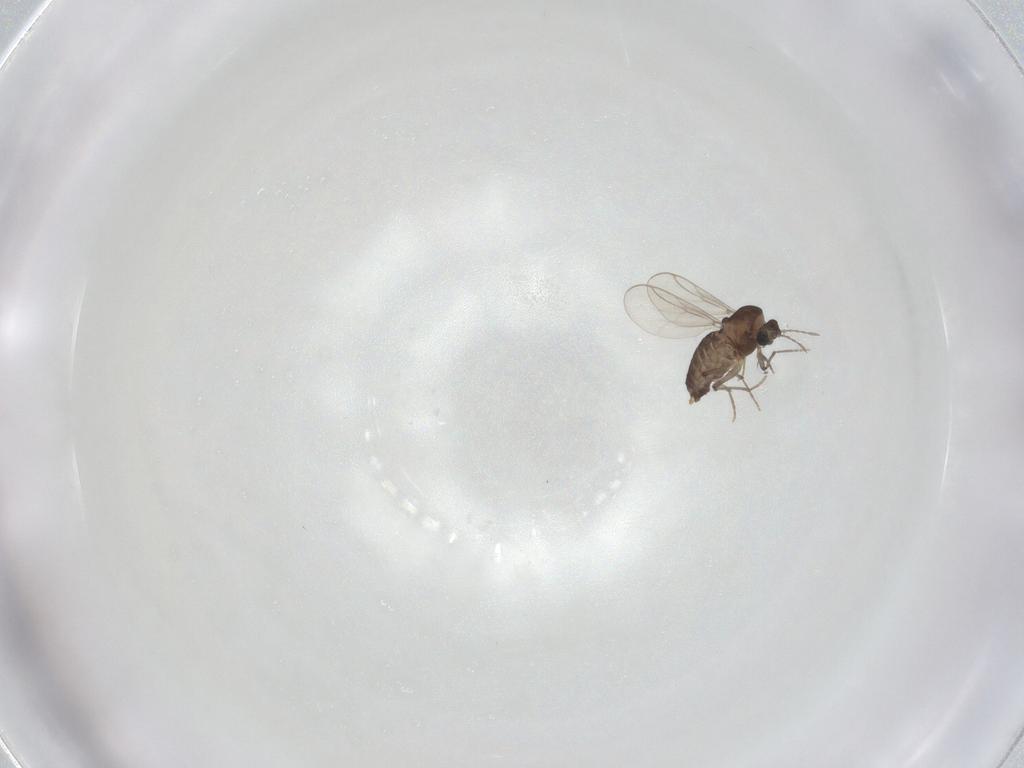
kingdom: Animalia
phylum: Arthropoda
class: Insecta
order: Diptera
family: Chironomidae
